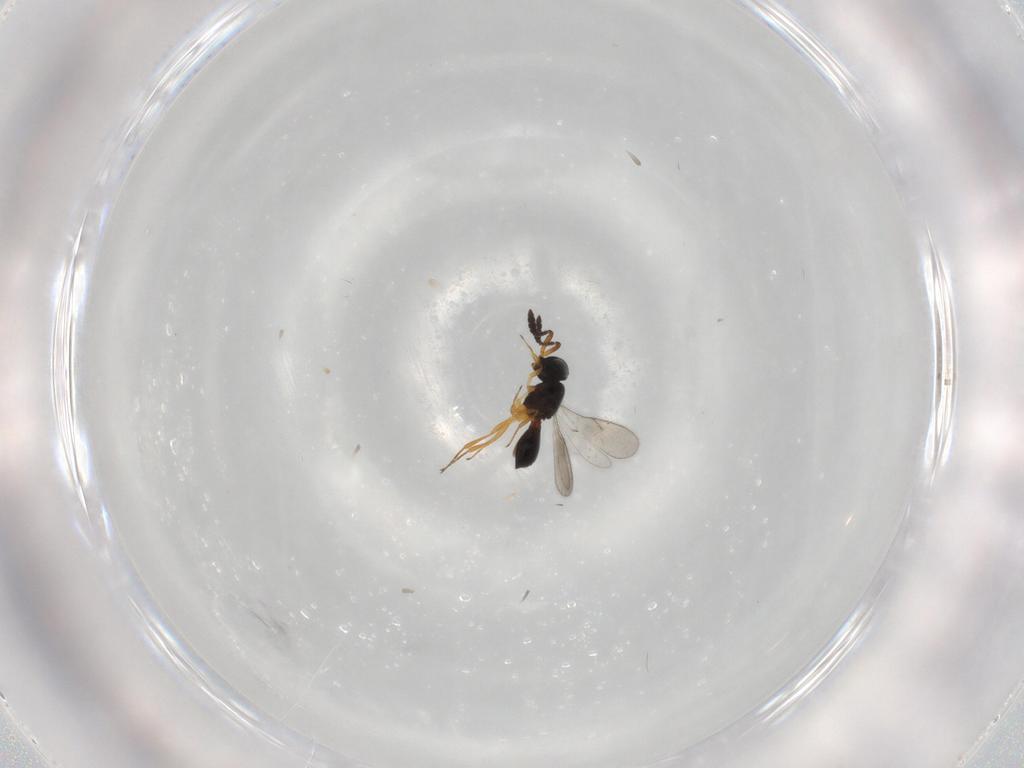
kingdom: Animalia
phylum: Arthropoda
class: Insecta
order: Hymenoptera
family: Scelionidae
